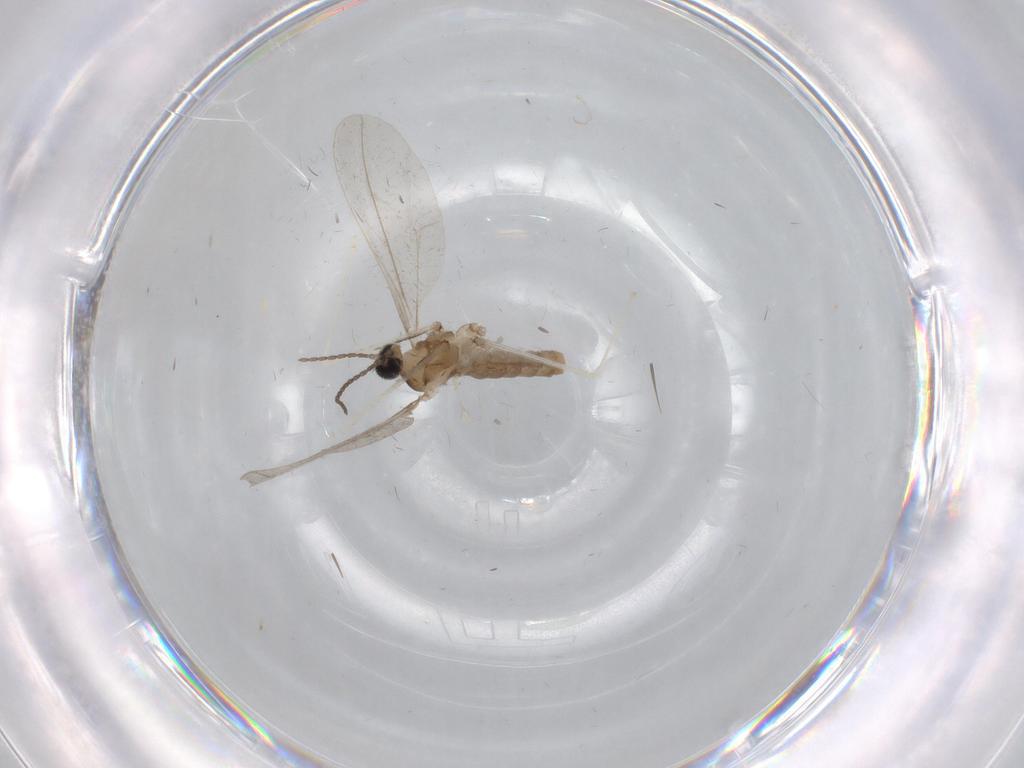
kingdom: Animalia
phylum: Arthropoda
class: Insecta
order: Diptera
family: Cecidomyiidae
